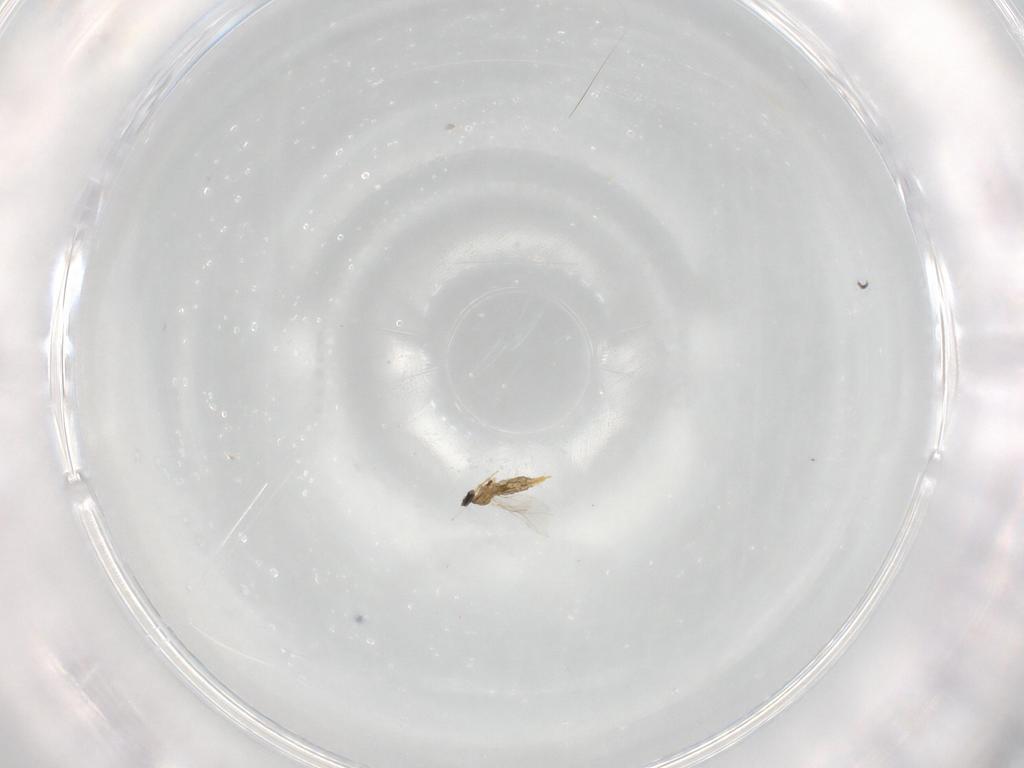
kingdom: Animalia
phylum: Arthropoda
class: Insecta
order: Diptera
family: Cecidomyiidae
